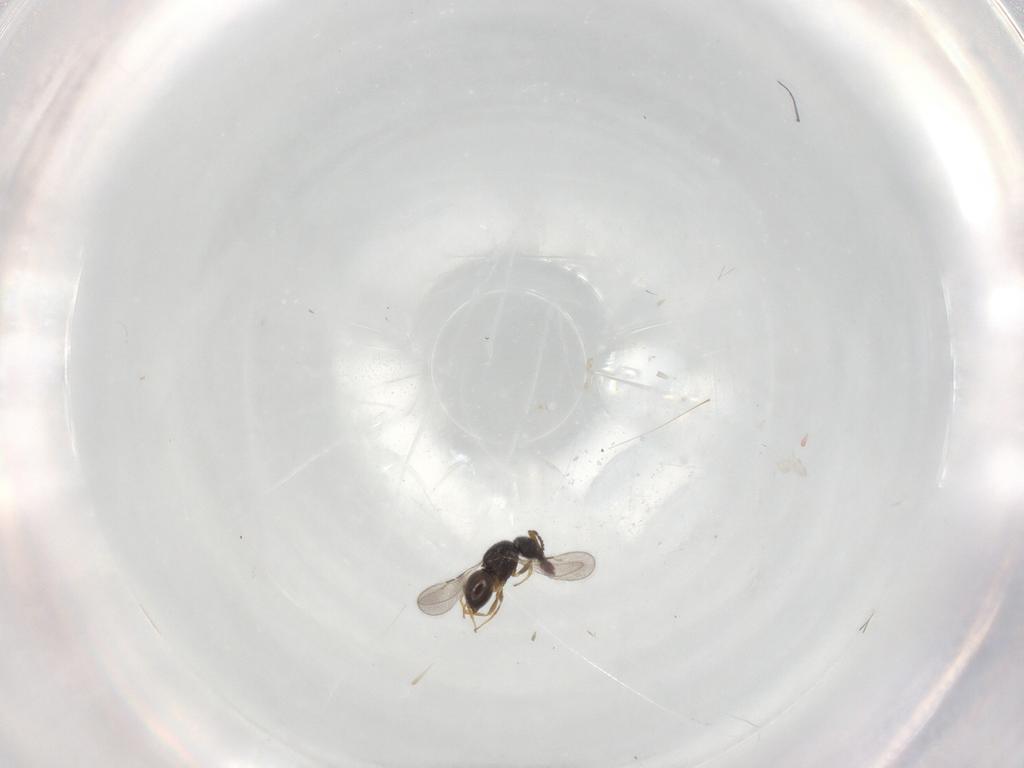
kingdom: Animalia
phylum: Arthropoda
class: Insecta
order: Hymenoptera
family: Ceraphronidae
